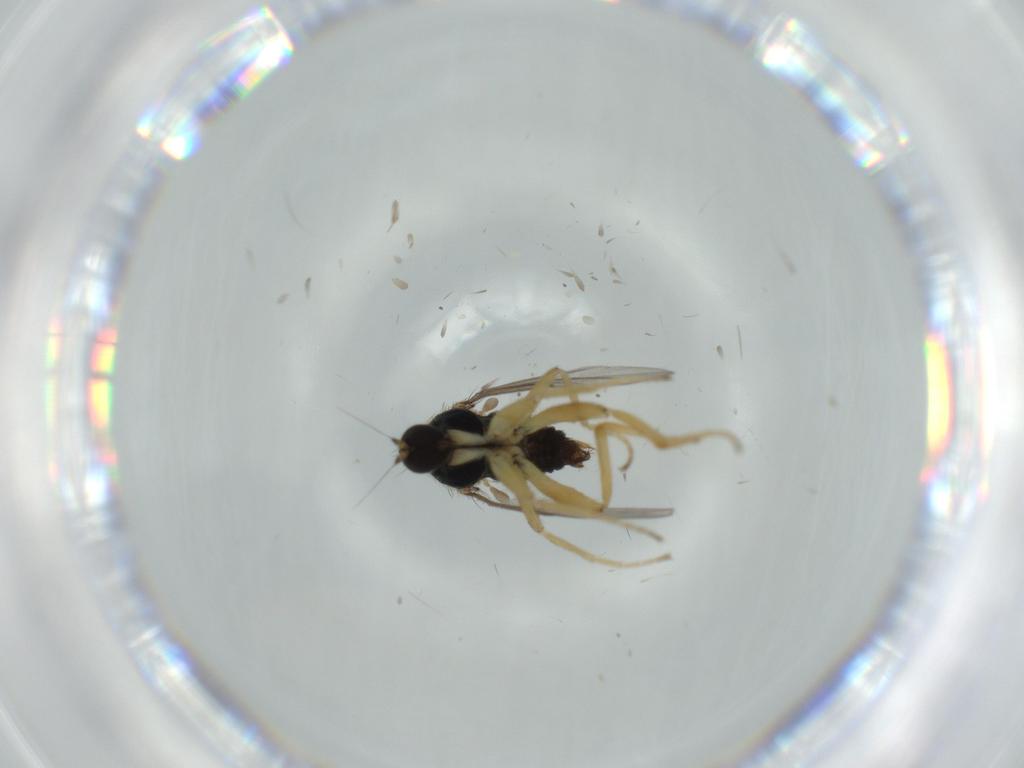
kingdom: Animalia
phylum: Arthropoda
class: Insecta
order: Diptera
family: Hybotidae
